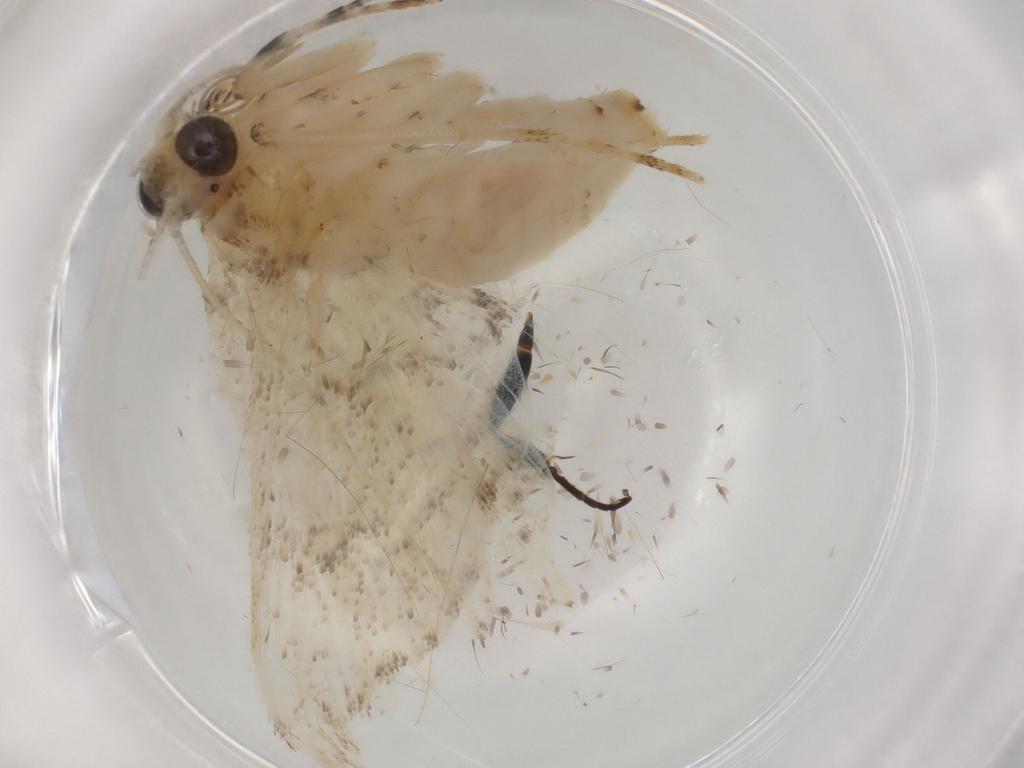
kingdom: Animalia
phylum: Arthropoda
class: Insecta
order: Lepidoptera
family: Crambidae
